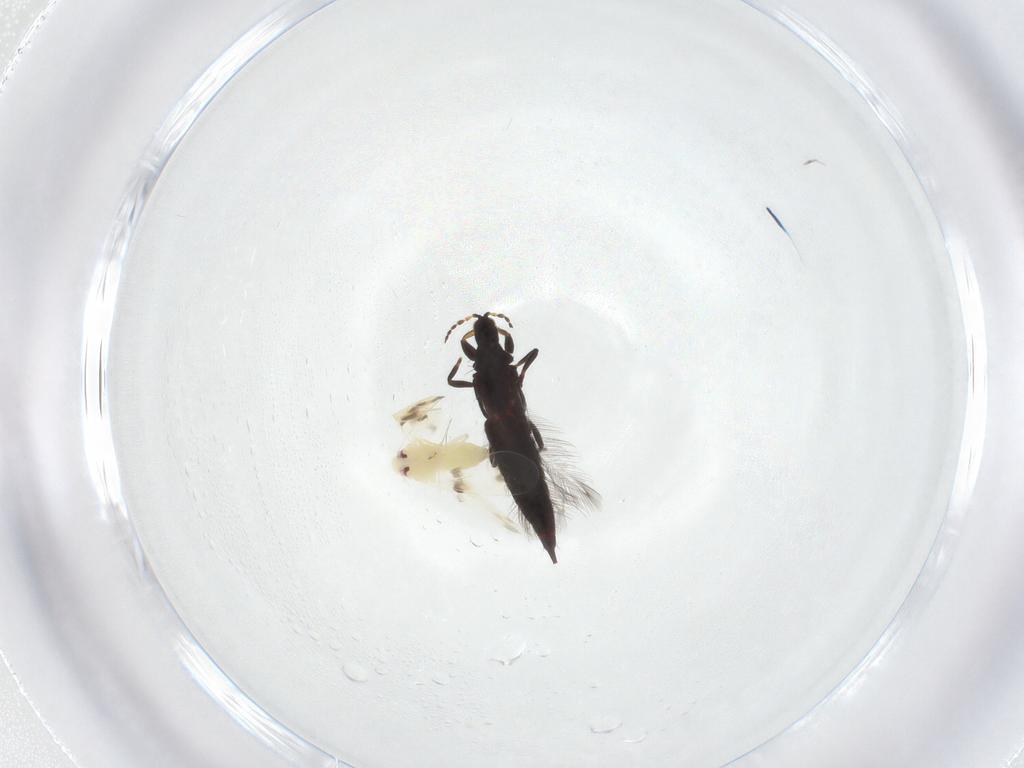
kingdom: Animalia
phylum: Arthropoda
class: Insecta
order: Thysanoptera
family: Phlaeothripidae
